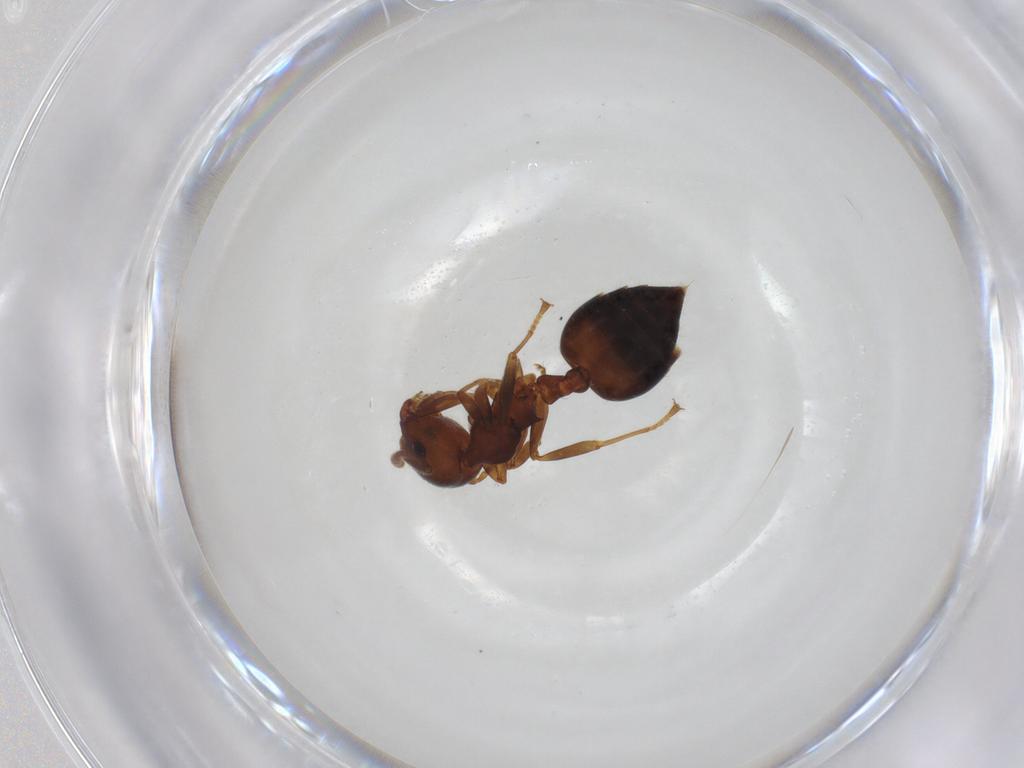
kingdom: Animalia
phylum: Arthropoda
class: Insecta
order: Hymenoptera
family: Formicidae
